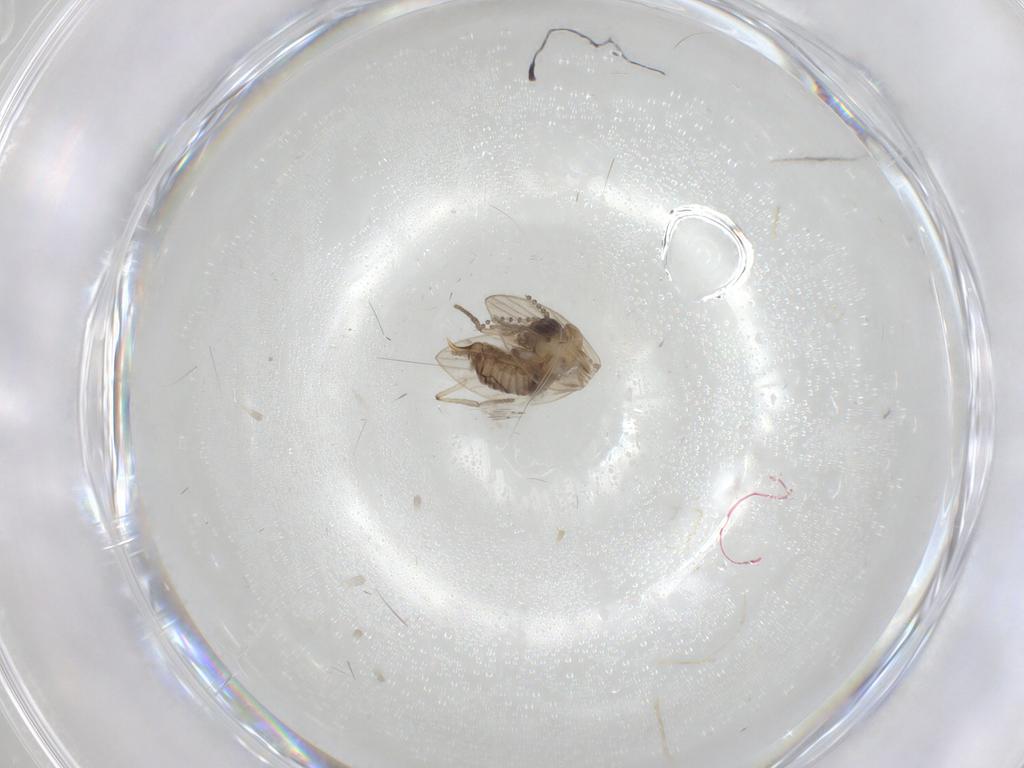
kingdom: Animalia
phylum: Arthropoda
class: Insecta
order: Diptera
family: Psychodidae
